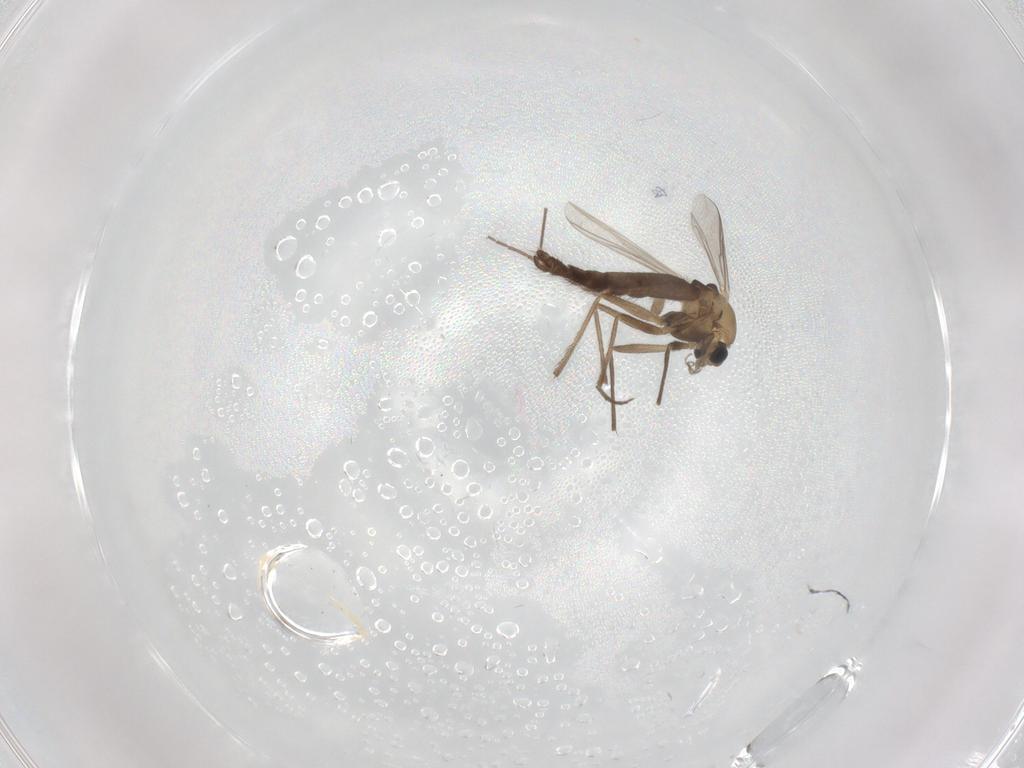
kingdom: Animalia
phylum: Arthropoda
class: Insecta
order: Diptera
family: Chironomidae
